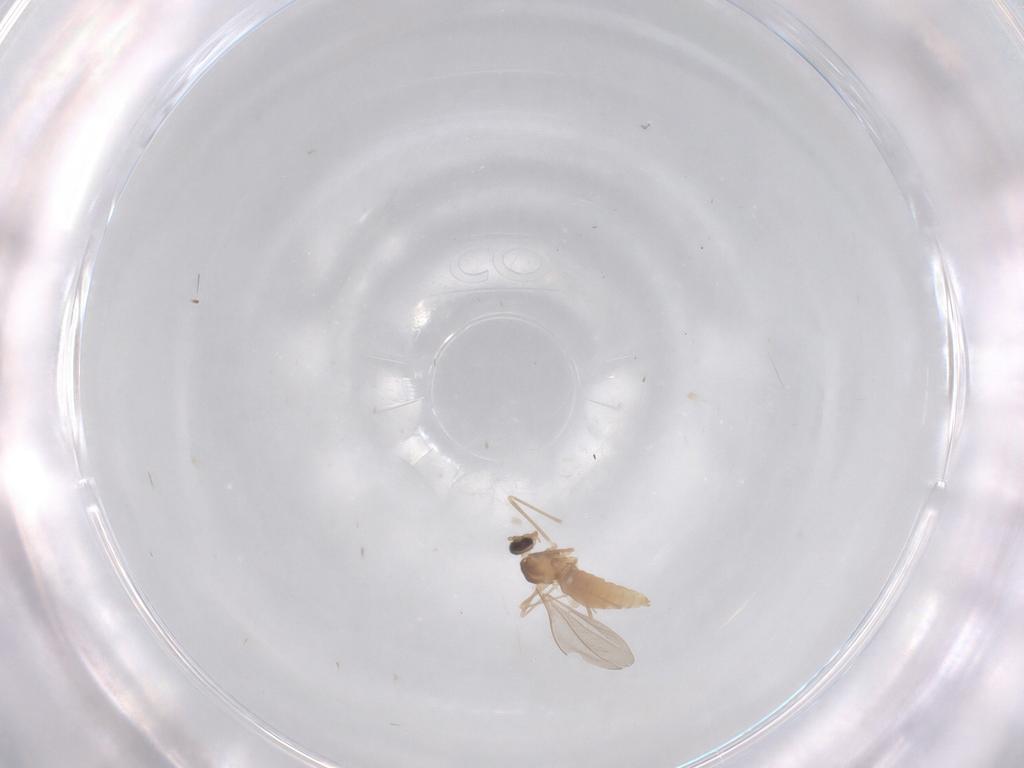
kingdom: Animalia
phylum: Arthropoda
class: Insecta
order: Diptera
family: Cecidomyiidae
